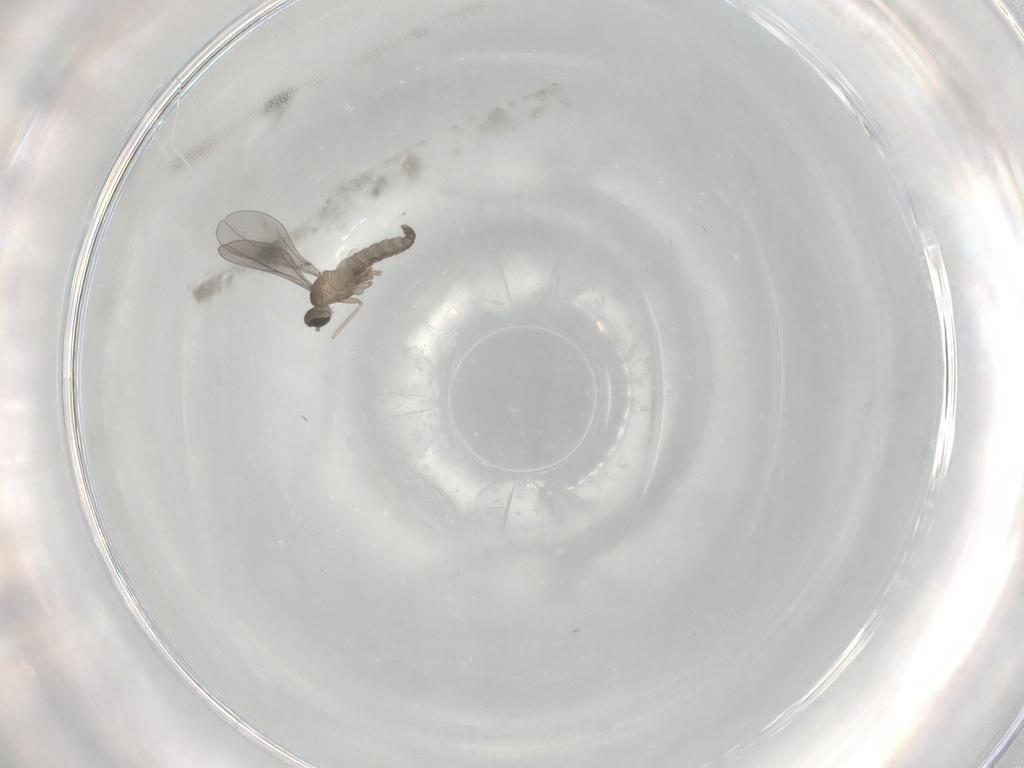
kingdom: Animalia
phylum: Arthropoda
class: Insecta
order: Diptera
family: Cecidomyiidae
